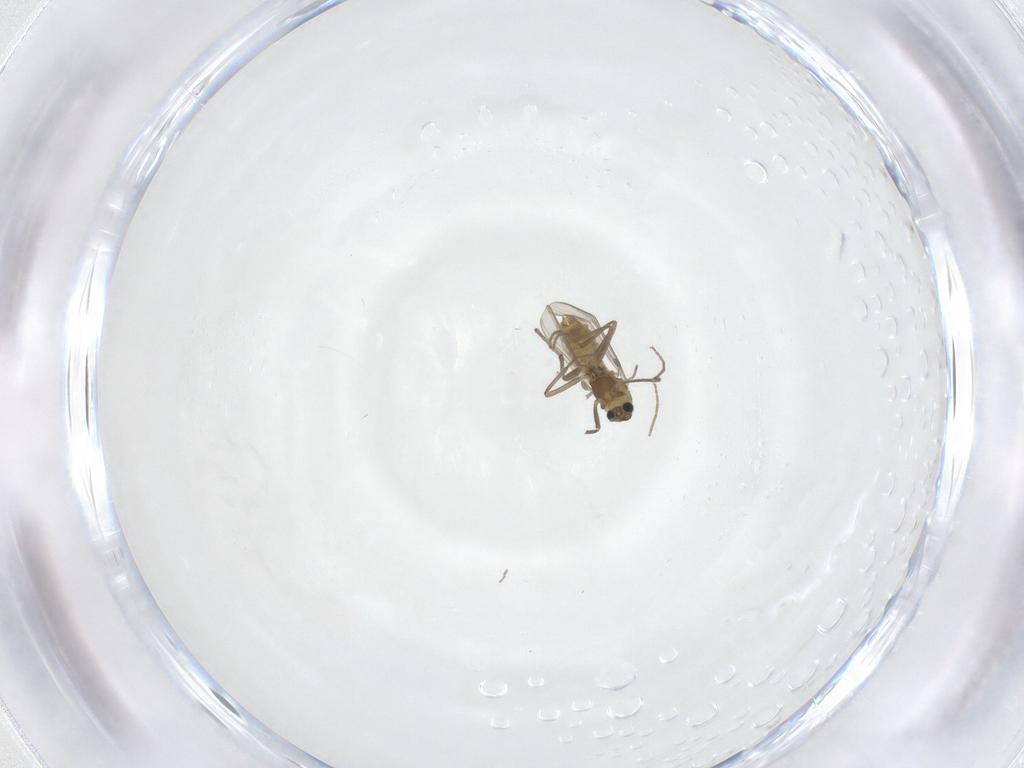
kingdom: Animalia
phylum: Arthropoda
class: Insecta
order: Diptera
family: Chironomidae
